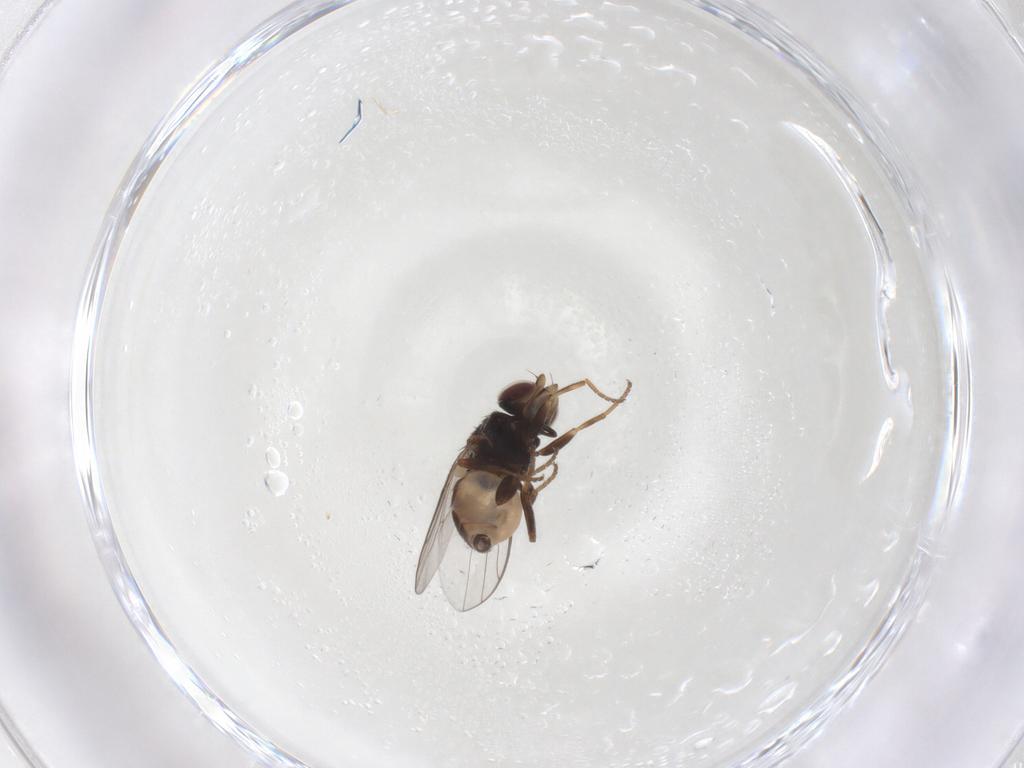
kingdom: Animalia
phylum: Arthropoda
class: Insecta
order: Diptera
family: Chloropidae
